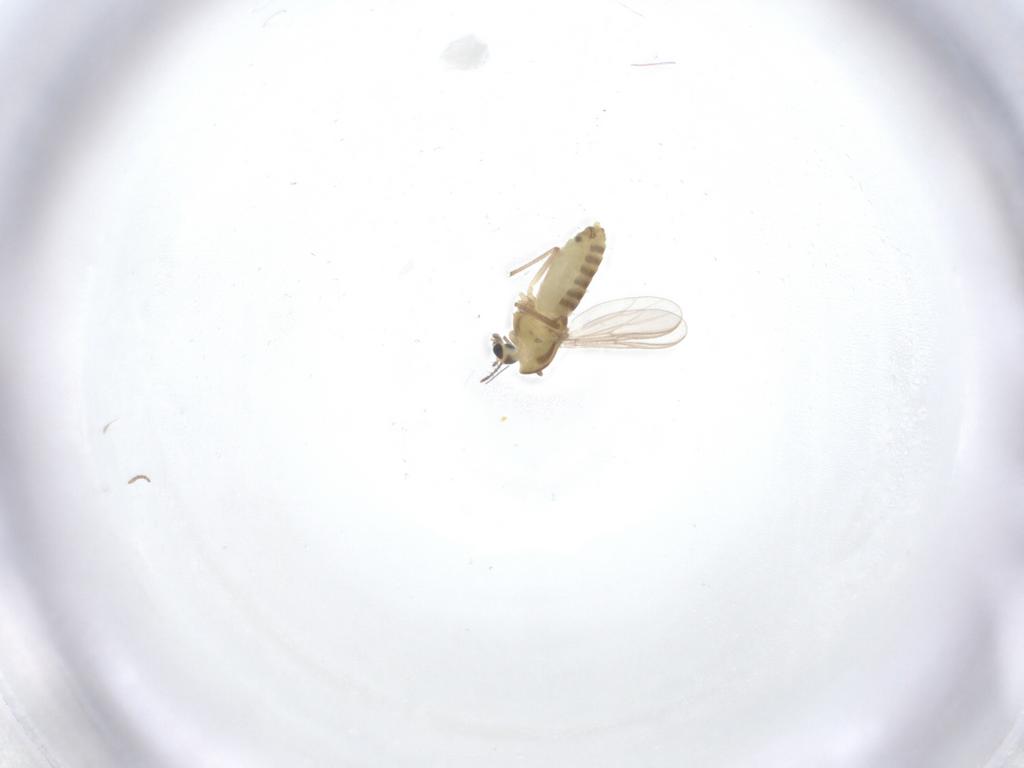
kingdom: Animalia
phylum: Arthropoda
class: Insecta
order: Diptera
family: Chironomidae
